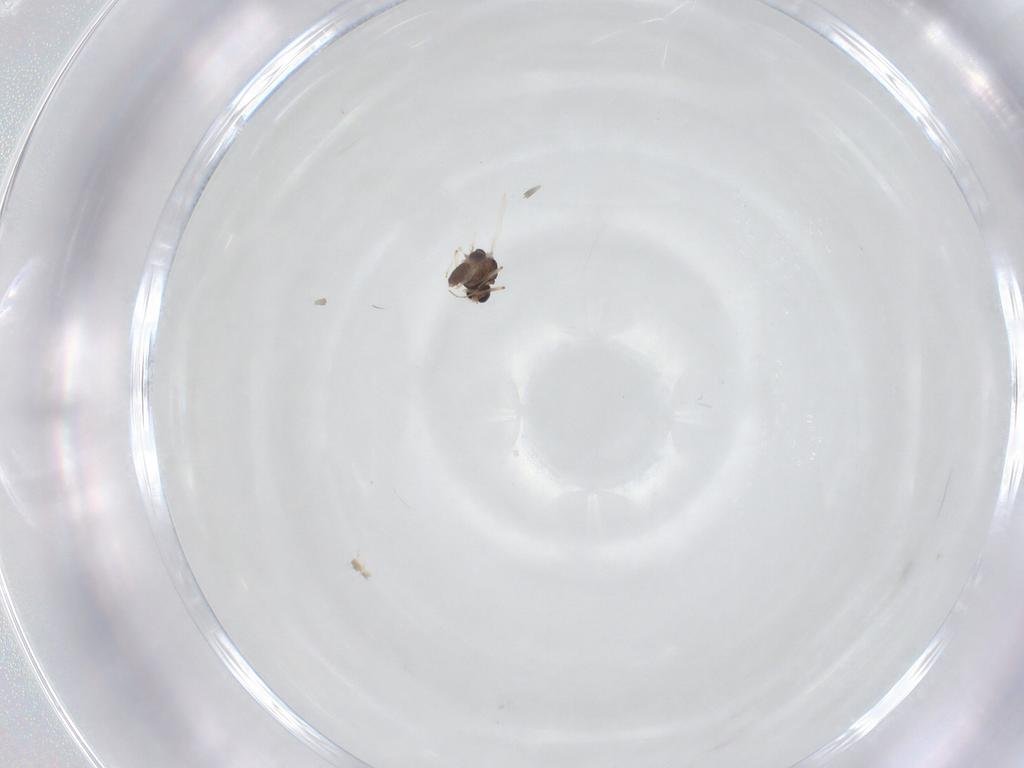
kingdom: Animalia
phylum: Arthropoda
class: Insecta
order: Diptera
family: Chironomidae
